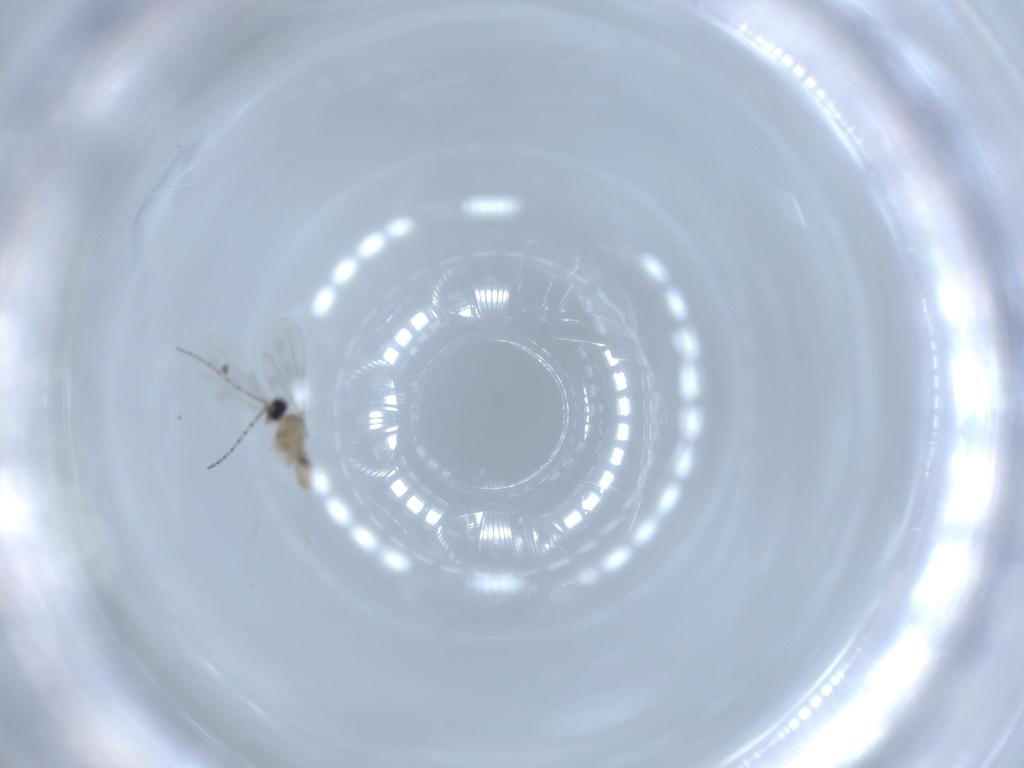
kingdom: Animalia
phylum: Arthropoda
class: Insecta
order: Diptera
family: Cecidomyiidae
